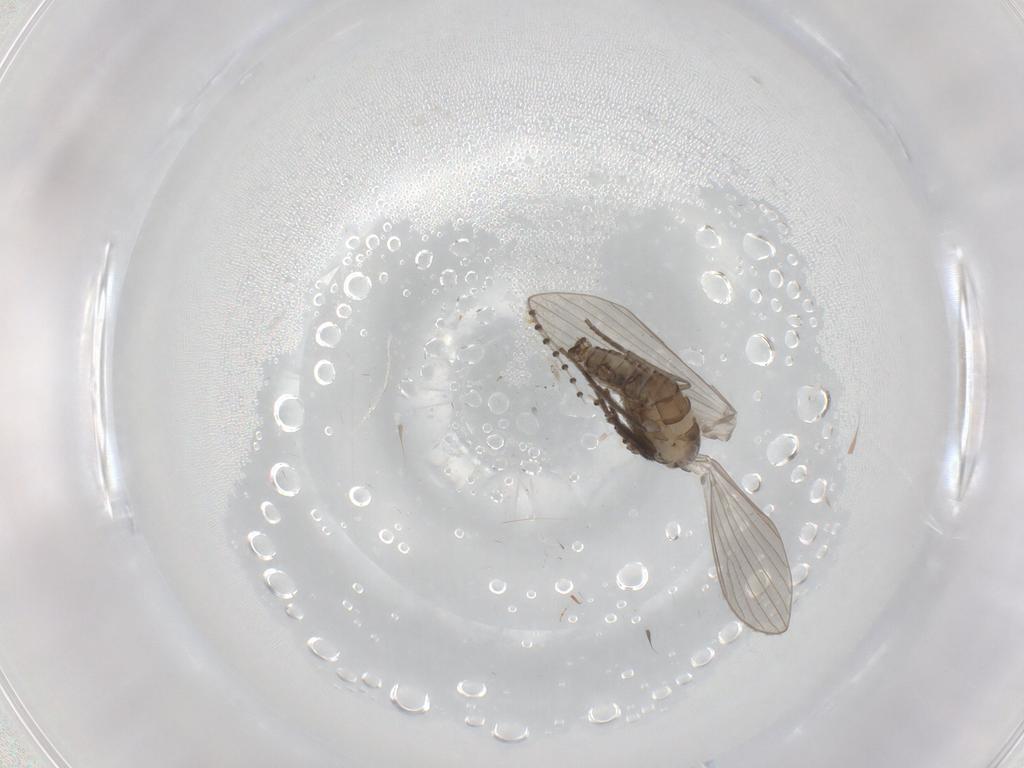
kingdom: Animalia
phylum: Arthropoda
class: Insecta
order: Diptera
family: Psychodidae
